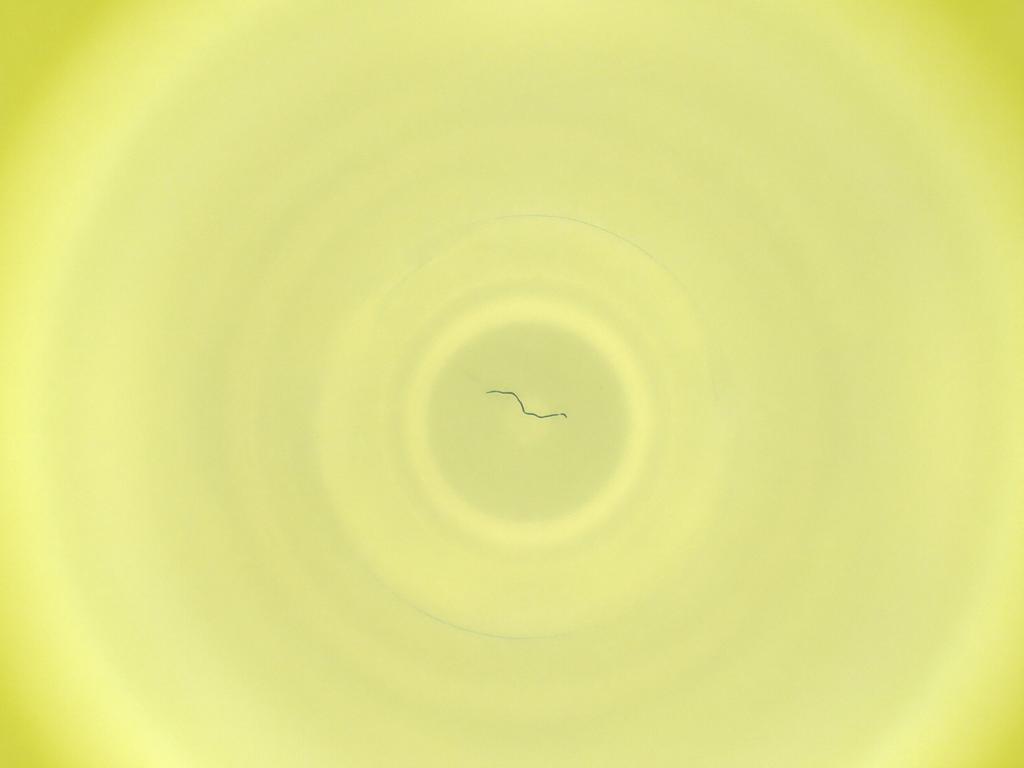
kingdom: Animalia
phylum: Arthropoda
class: Insecta
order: Diptera
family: Cecidomyiidae
